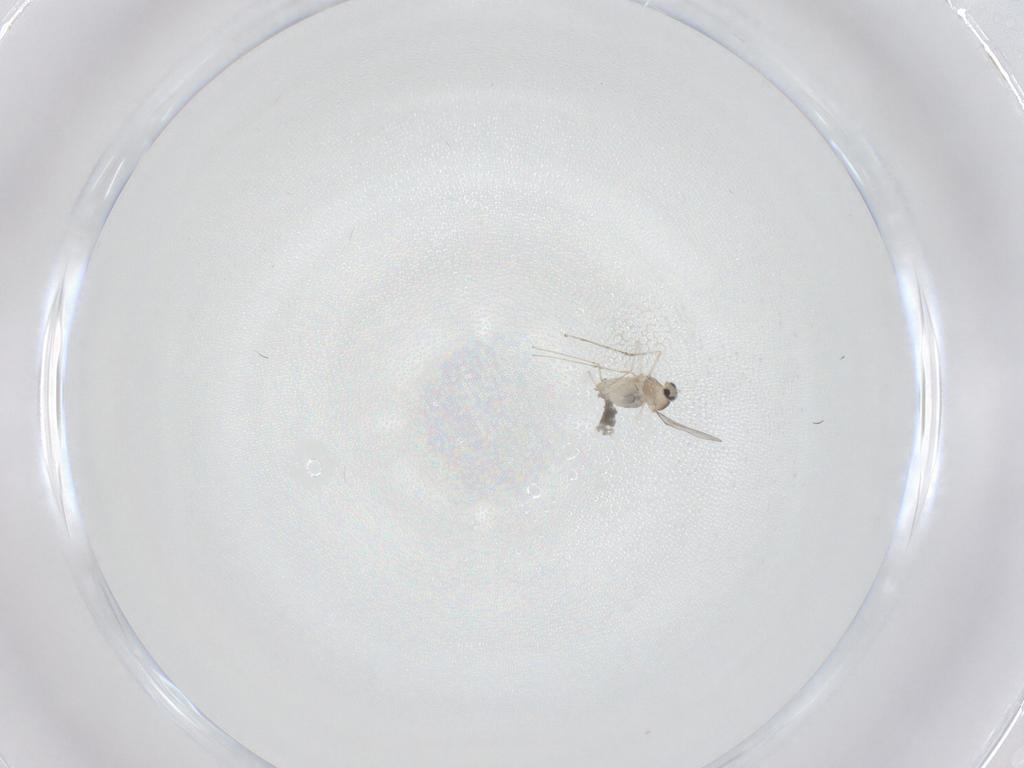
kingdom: Animalia
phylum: Arthropoda
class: Insecta
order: Diptera
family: Cecidomyiidae
